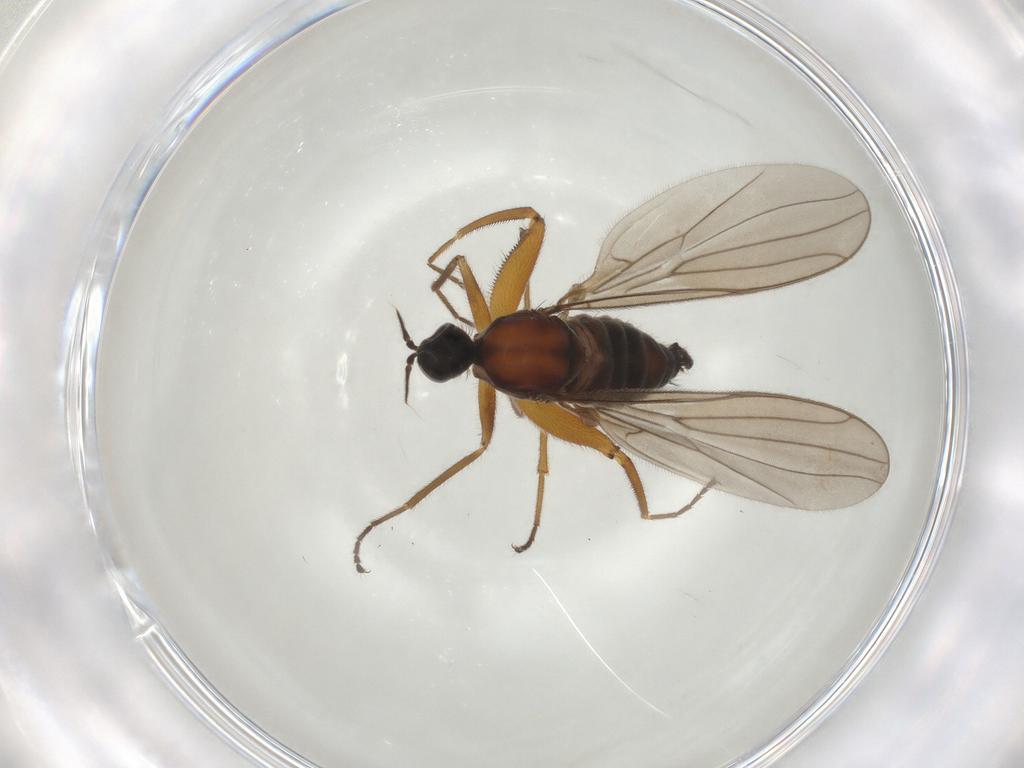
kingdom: Animalia
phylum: Arthropoda
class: Insecta
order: Diptera
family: Hybotidae
